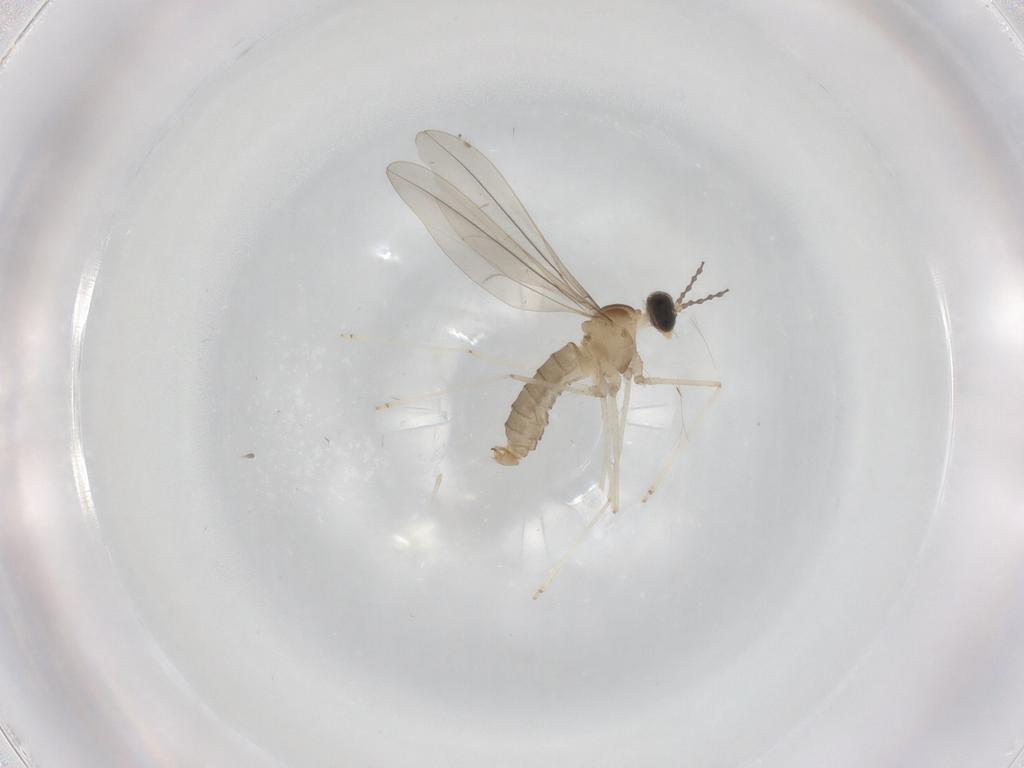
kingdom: Animalia
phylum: Arthropoda
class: Insecta
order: Diptera
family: Cecidomyiidae
